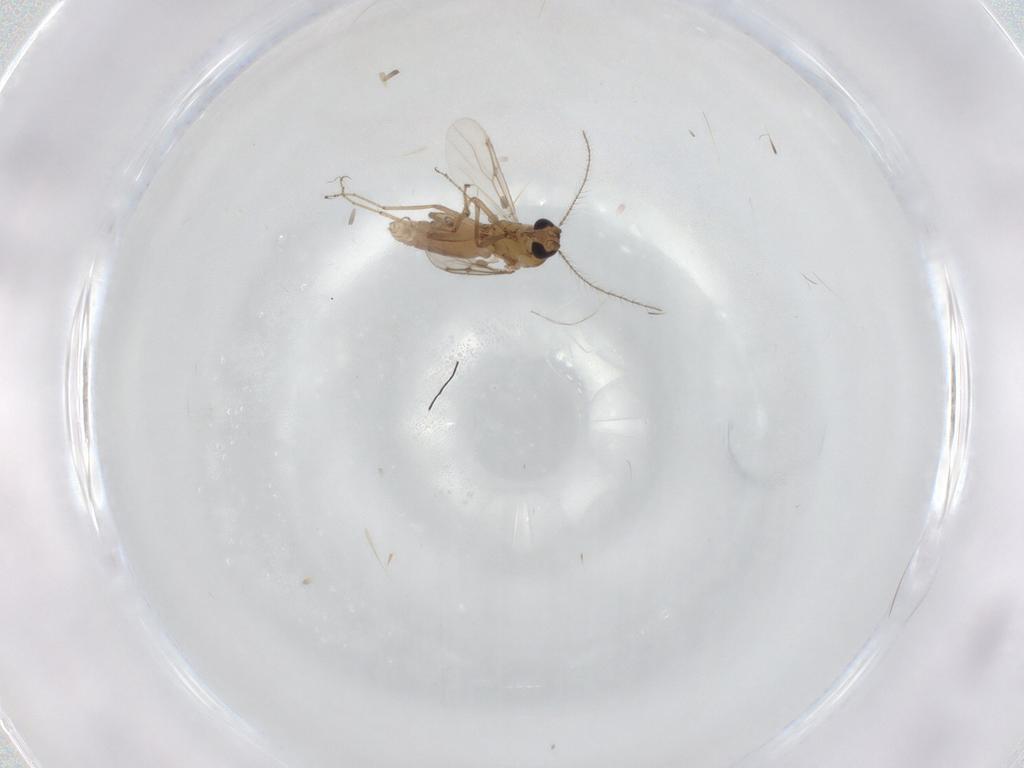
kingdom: Animalia
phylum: Arthropoda
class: Insecta
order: Diptera
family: Ceratopogonidae
